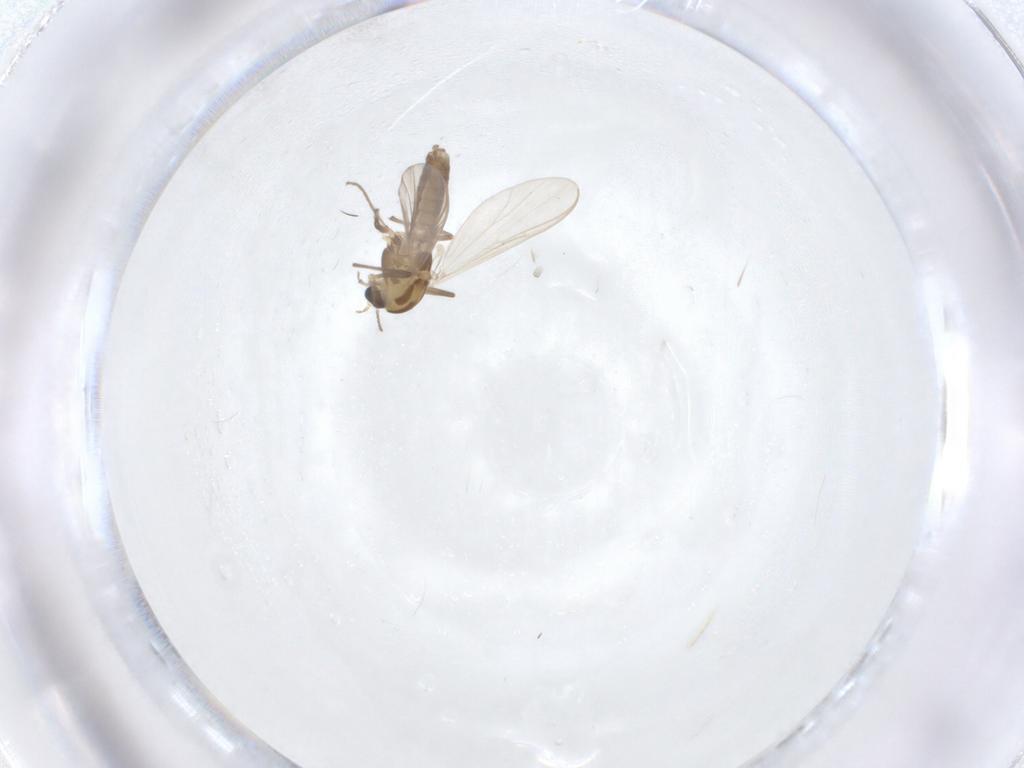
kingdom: Animalia
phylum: Arthropoda
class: Insecta
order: Diptera
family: Chironomidae
